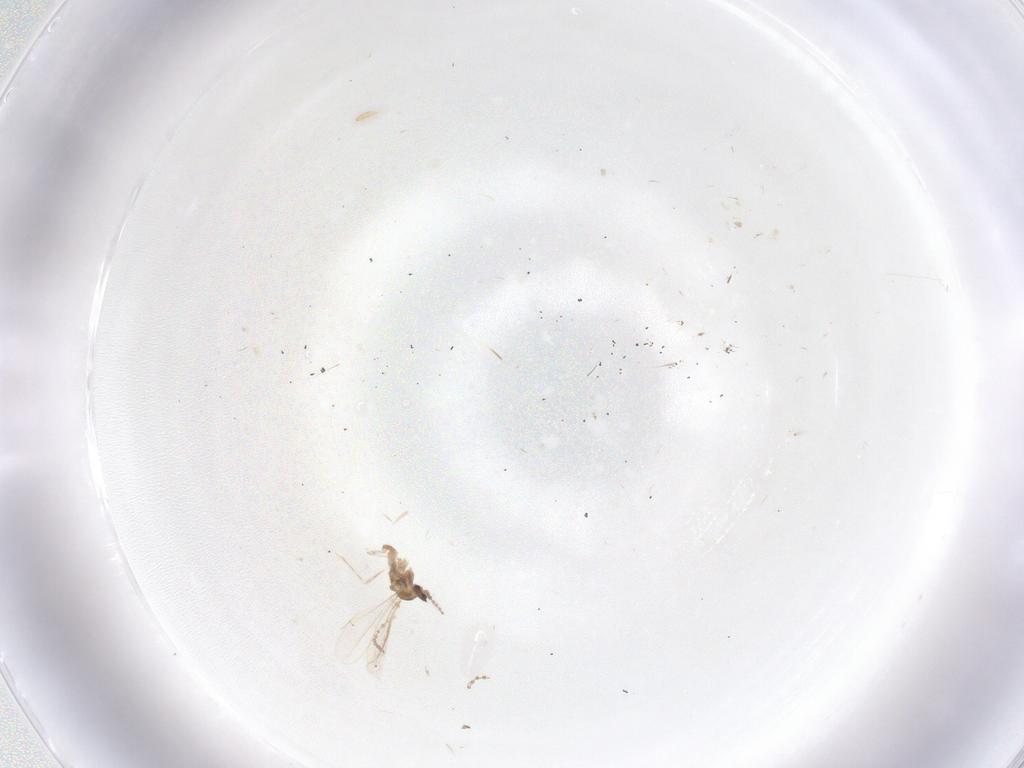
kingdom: Animalia
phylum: Arthropoda
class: Insecta
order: Diptera
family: Cecidomyiidae
